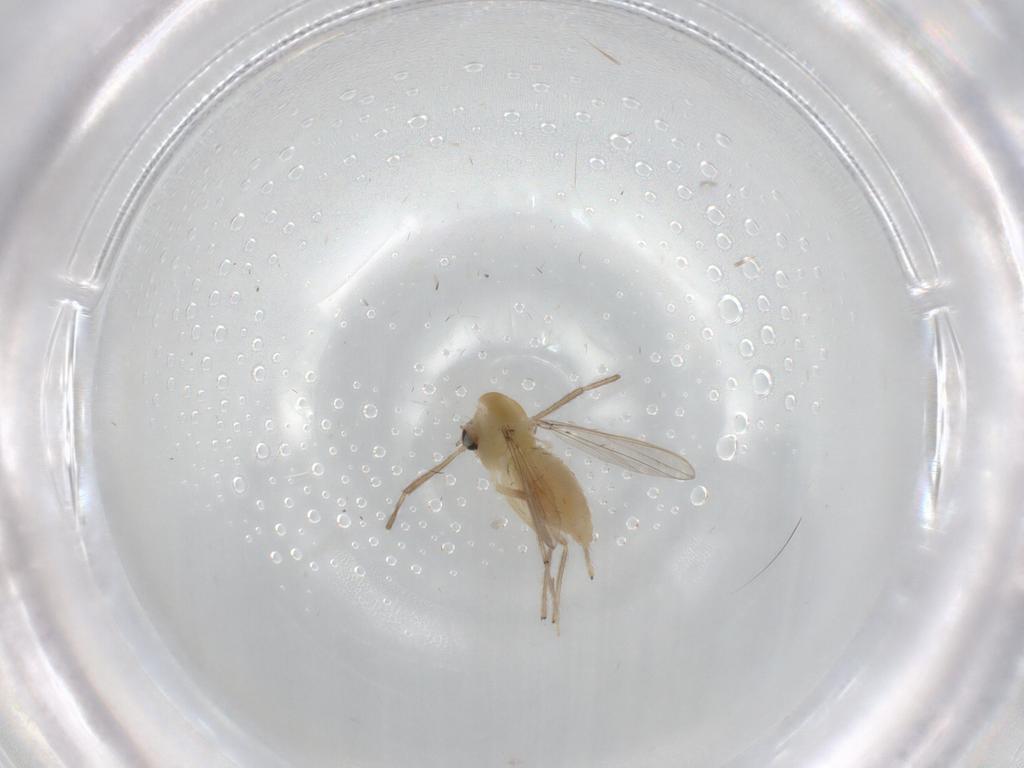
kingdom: Animalia
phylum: Arthropoda
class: Insecta
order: Diptera
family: Chironomidae
